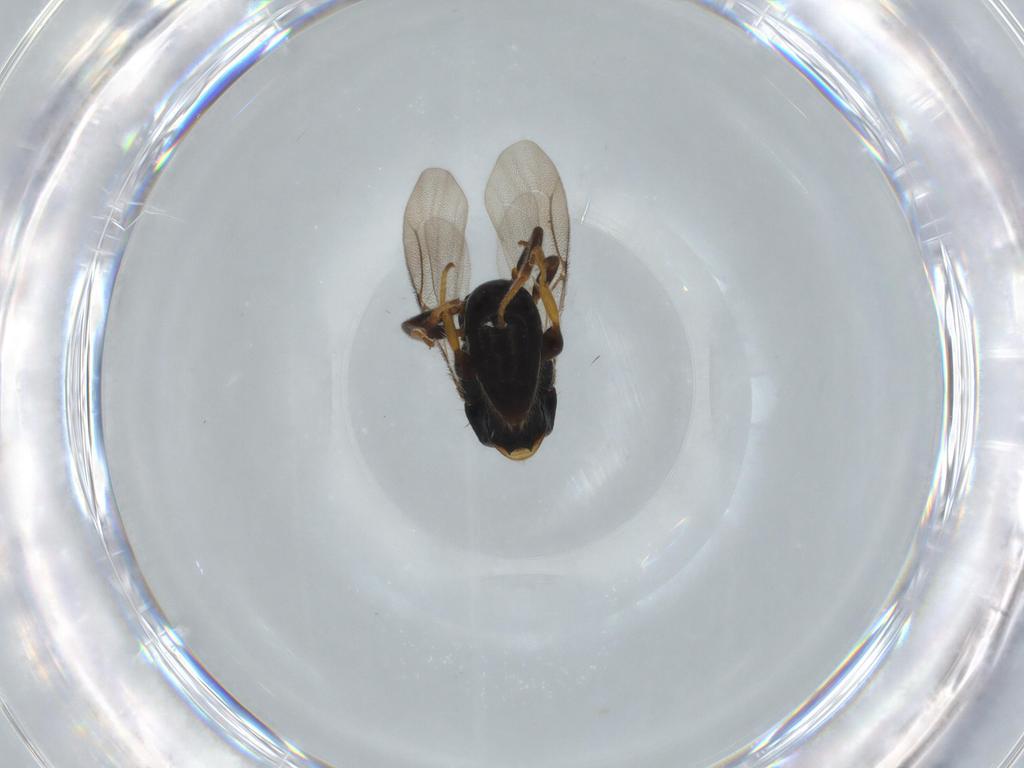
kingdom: Animalia
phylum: Arthropoda
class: Insecta
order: Hymenoptera
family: Bethylidae
